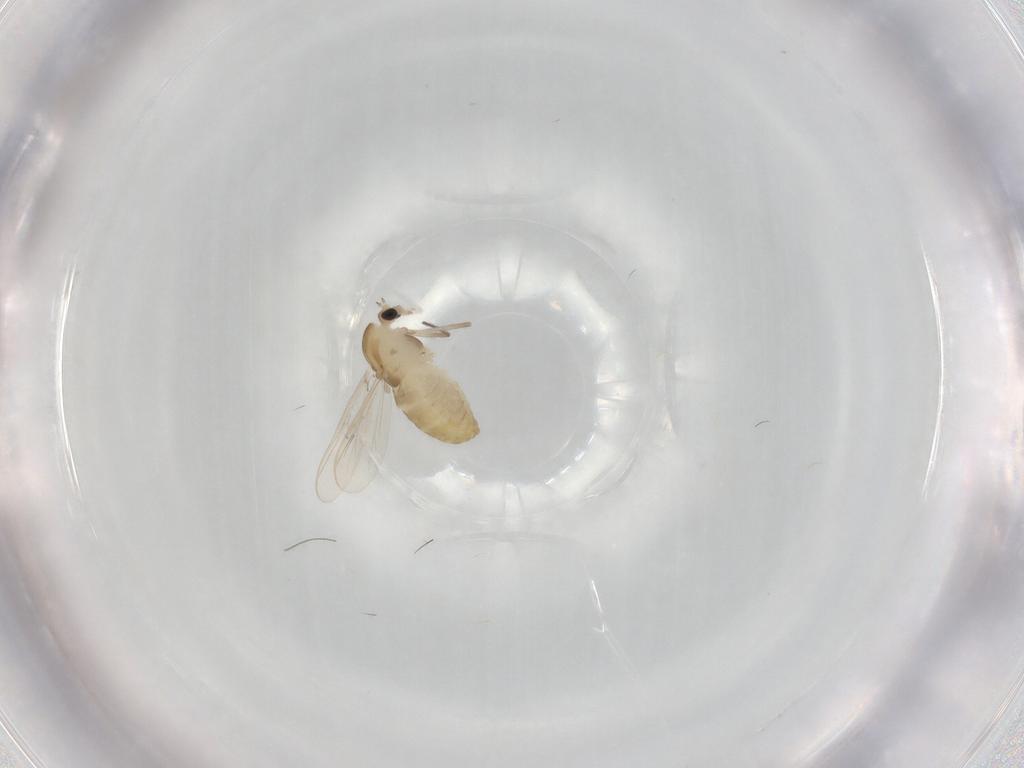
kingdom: Animalia
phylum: Arthropoda
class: Insecta
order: Diptera
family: Chironomidae
